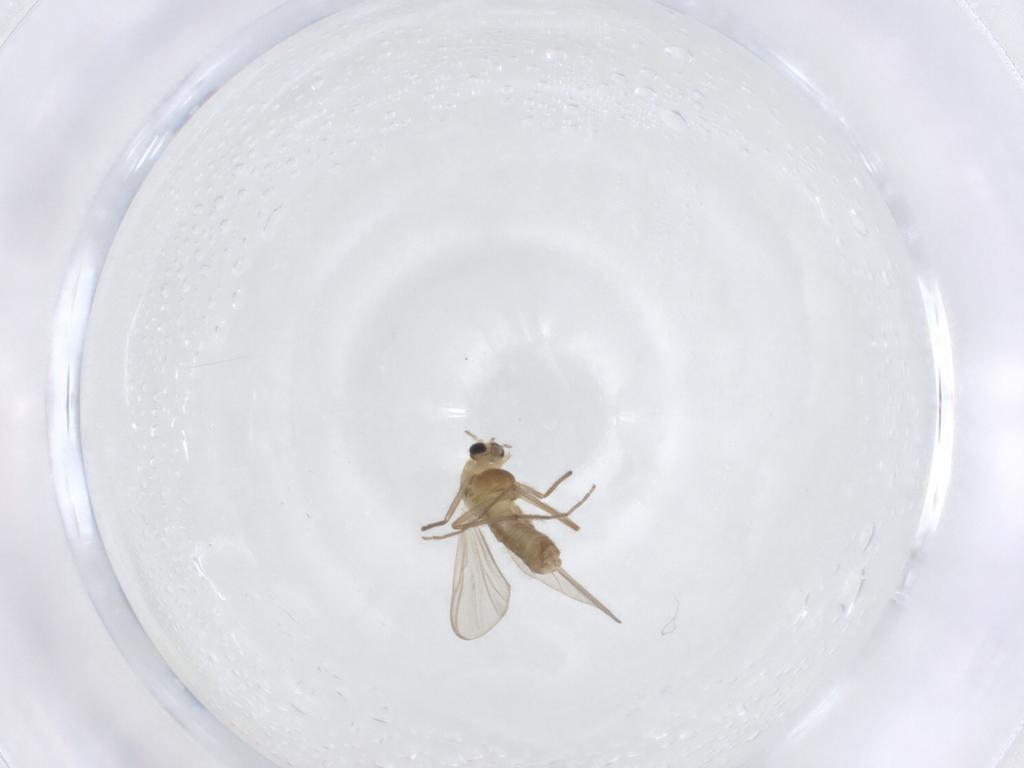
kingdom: Animalia
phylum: Arthropoda
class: Insecta
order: Diptera
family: Chironomidae
